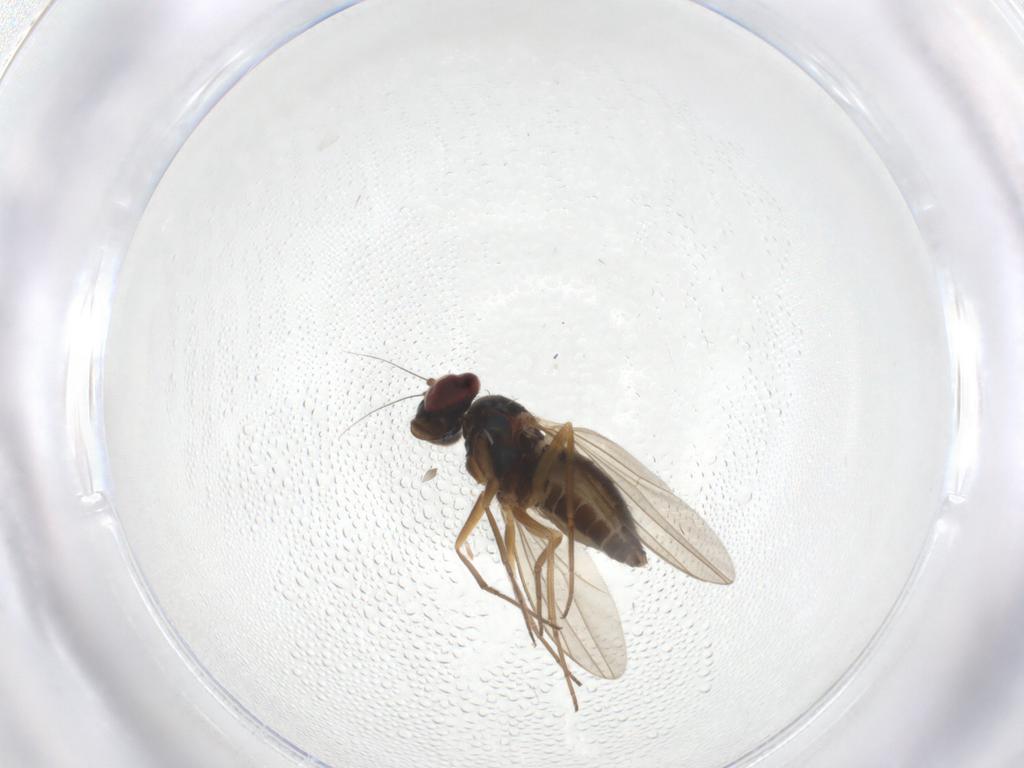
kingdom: Animalia
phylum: Arthropoda
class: Insecta
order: Diptera
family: Dolichopodidae
